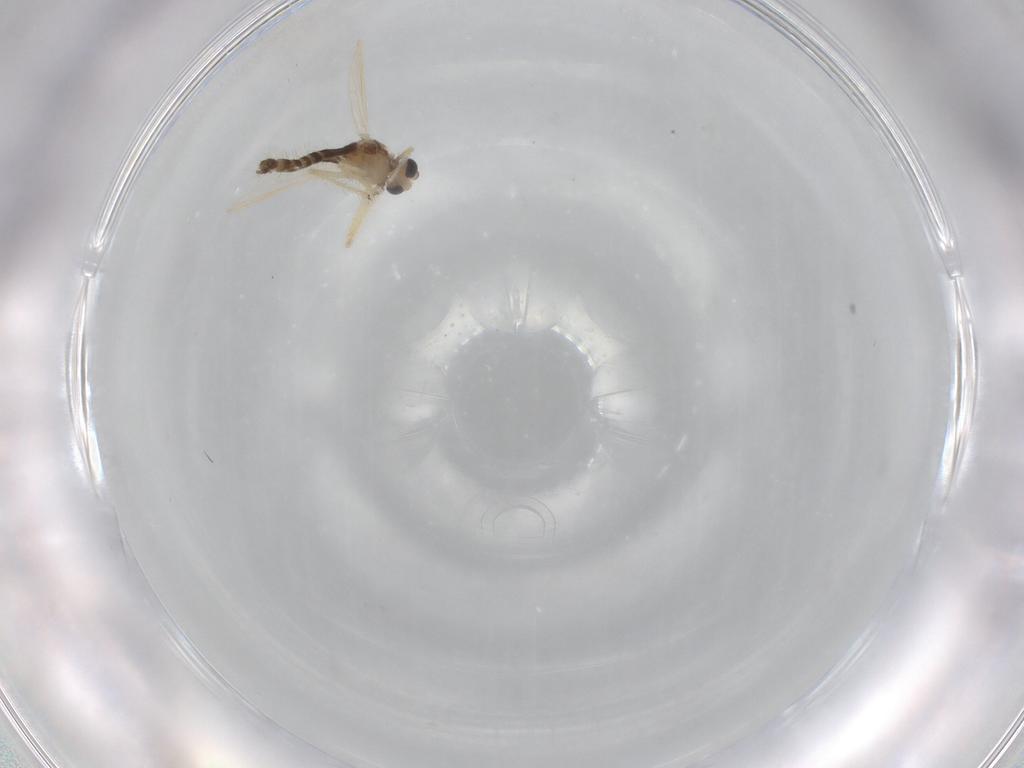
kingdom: Animalia
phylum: Arthropoda
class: Insecta
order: Diptera
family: Chironomidae
